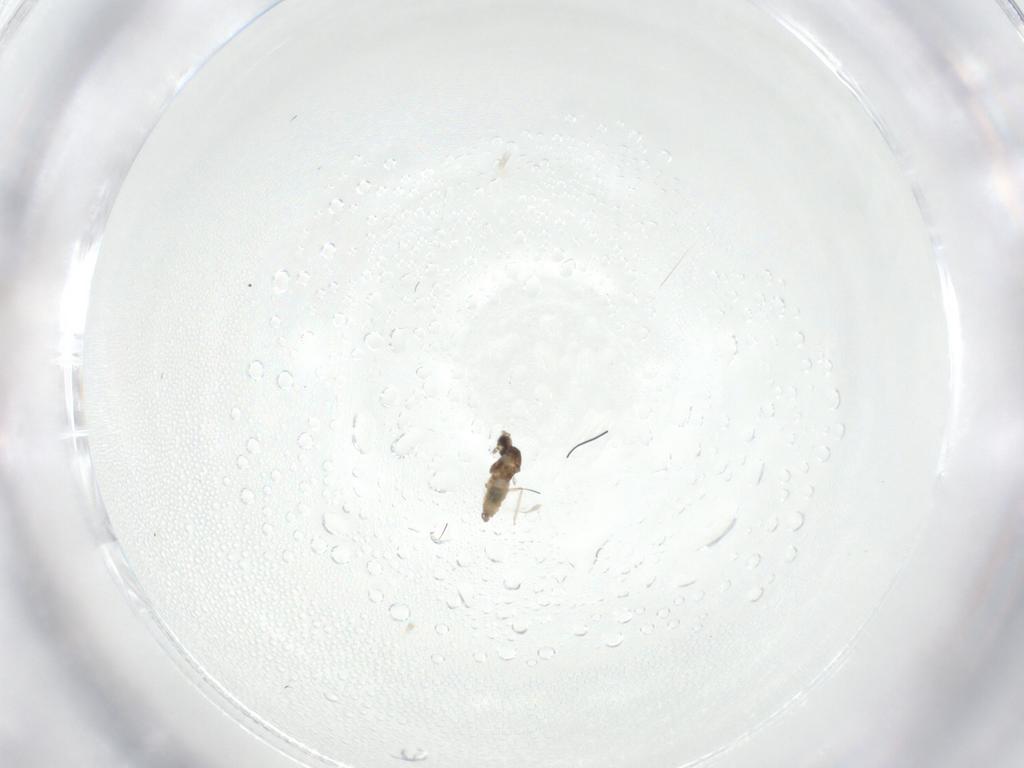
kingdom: Animalia
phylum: Arthropoda
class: Insecta
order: Diptera
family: Cecidomyiidae
